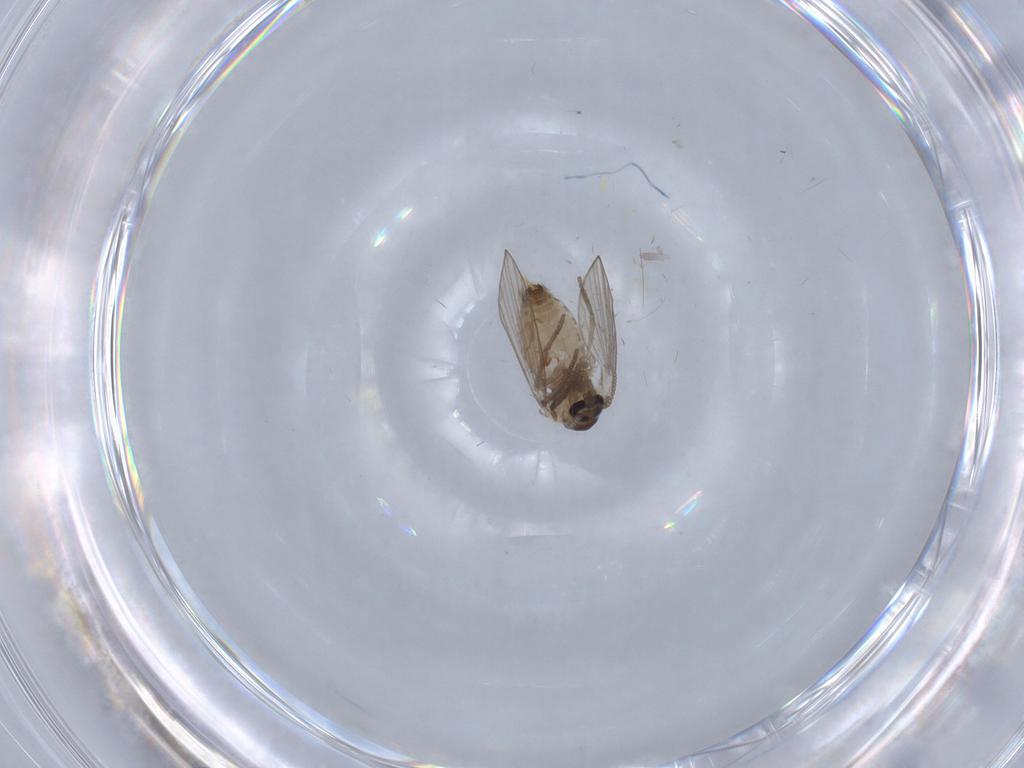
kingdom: Animalia
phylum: Arthropoda
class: Insecta
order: Diptera
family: Psychodidae
